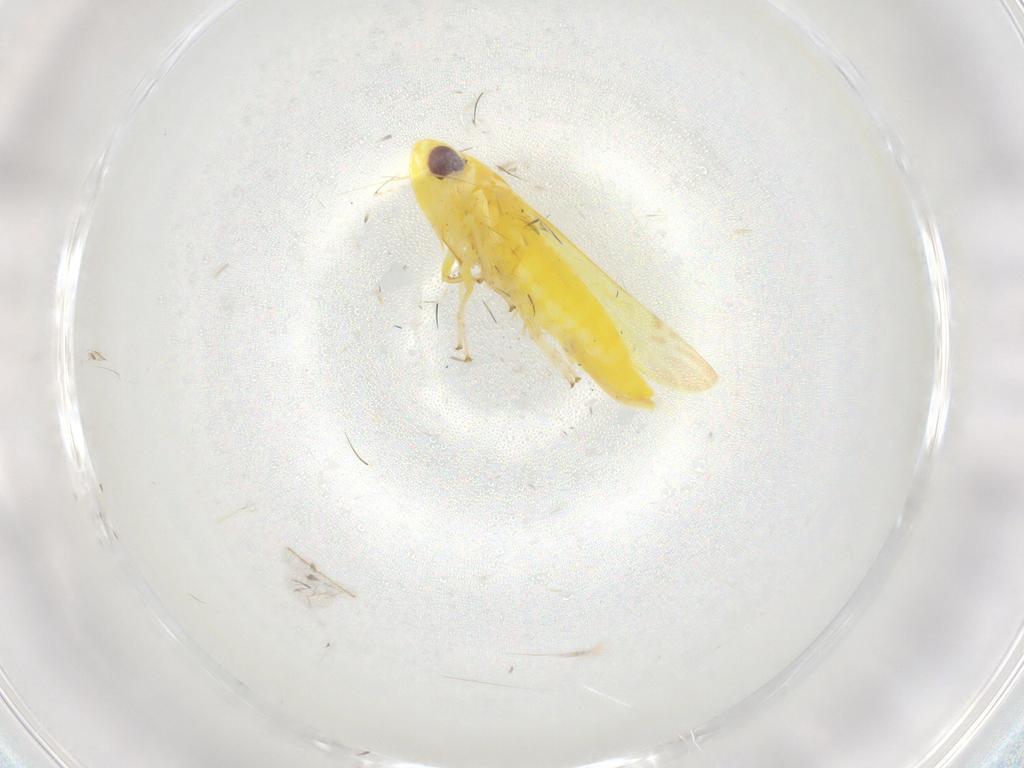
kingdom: Animalia
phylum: Arthropoda
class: Insecta
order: Hemiptera
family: Cicadellidae
